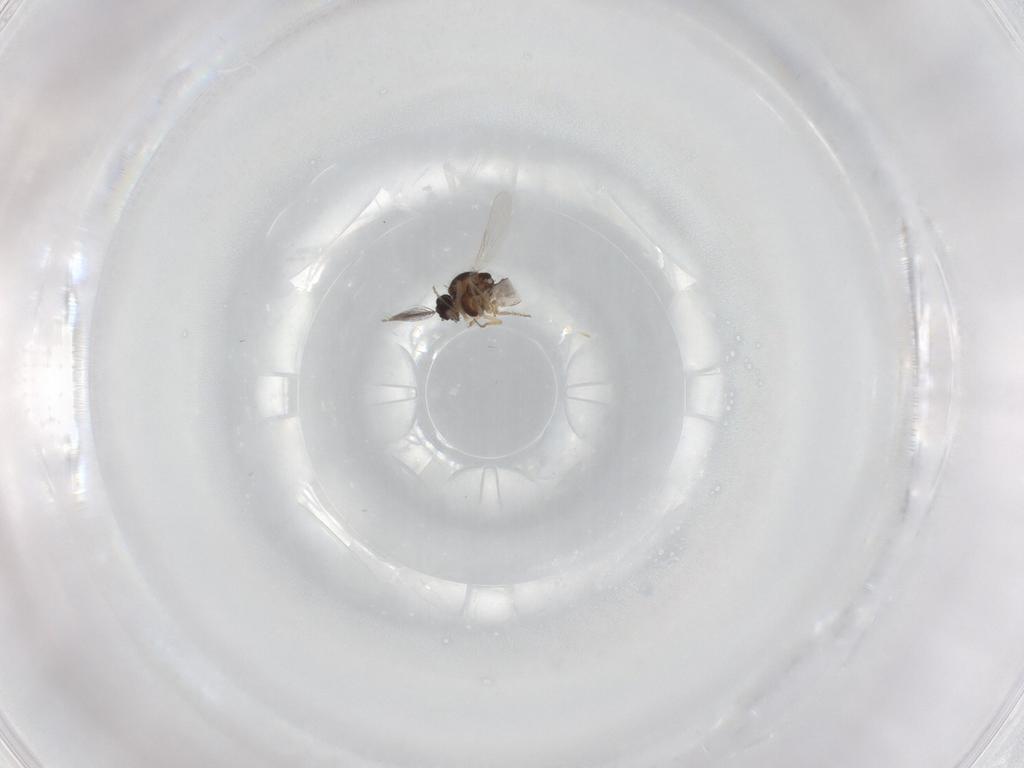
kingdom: Animalia
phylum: Arthropoda
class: Insecta
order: Diptera
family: Ceratopogonidae
